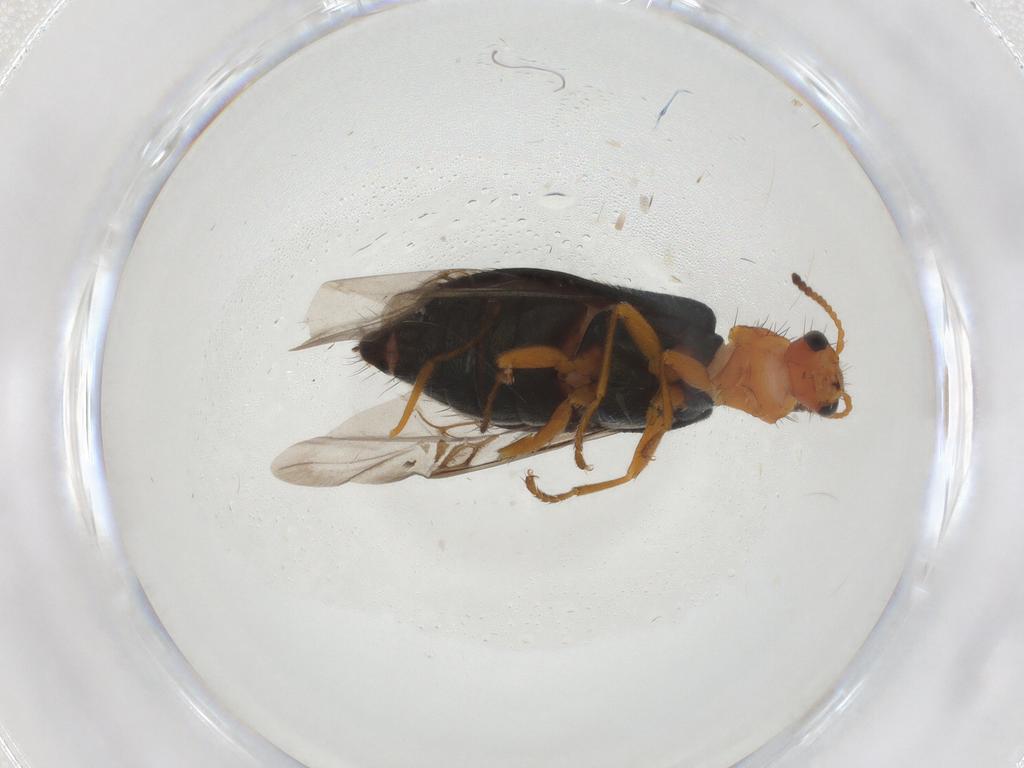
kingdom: Animalia
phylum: Arthropoda
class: Insecta
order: Coleoptera
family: Melyridae
